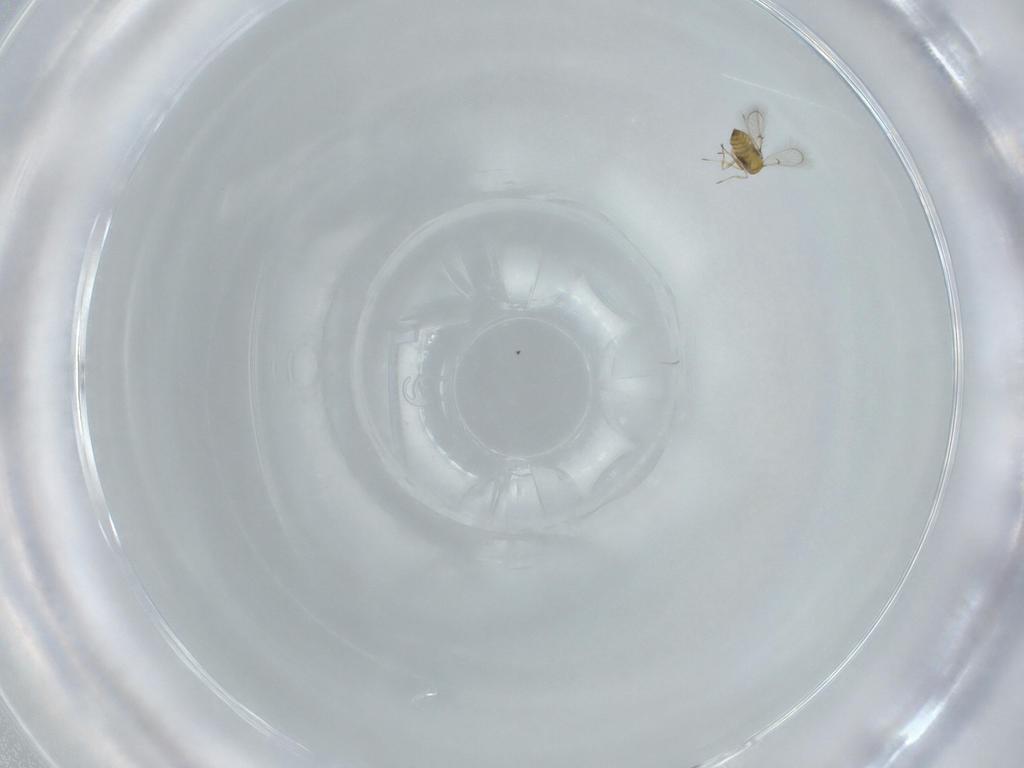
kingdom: Animalia
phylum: Arthropoda
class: Insecta
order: Hymenoptera
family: Trichogrammatidae
